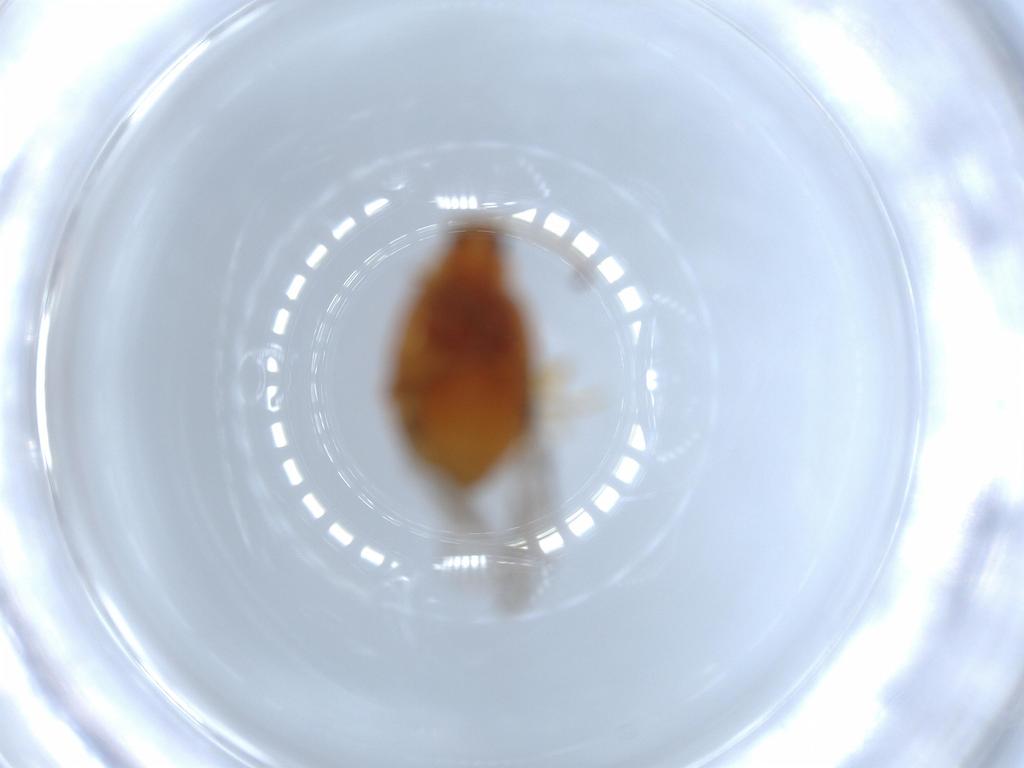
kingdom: Animalia
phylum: Arthropoda
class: Insecta
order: Coleoptera
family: Chrysomelidae
